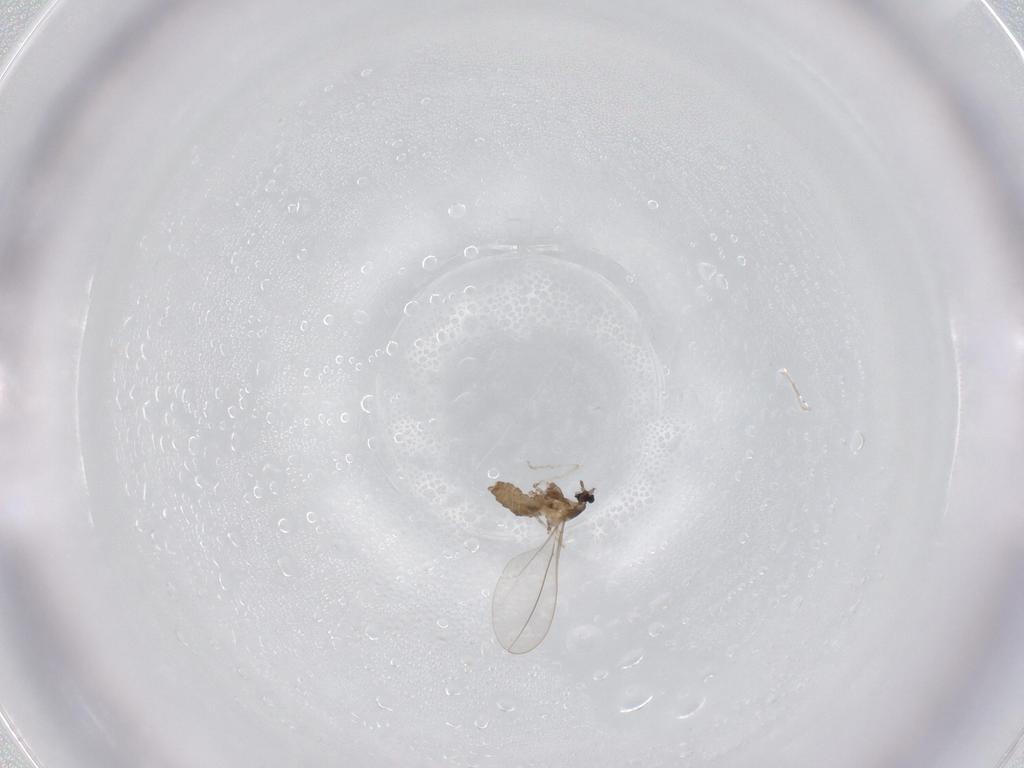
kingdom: Animalia
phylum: Arthropoda
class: Insecta
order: Diptera
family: Cecidomyiidae
